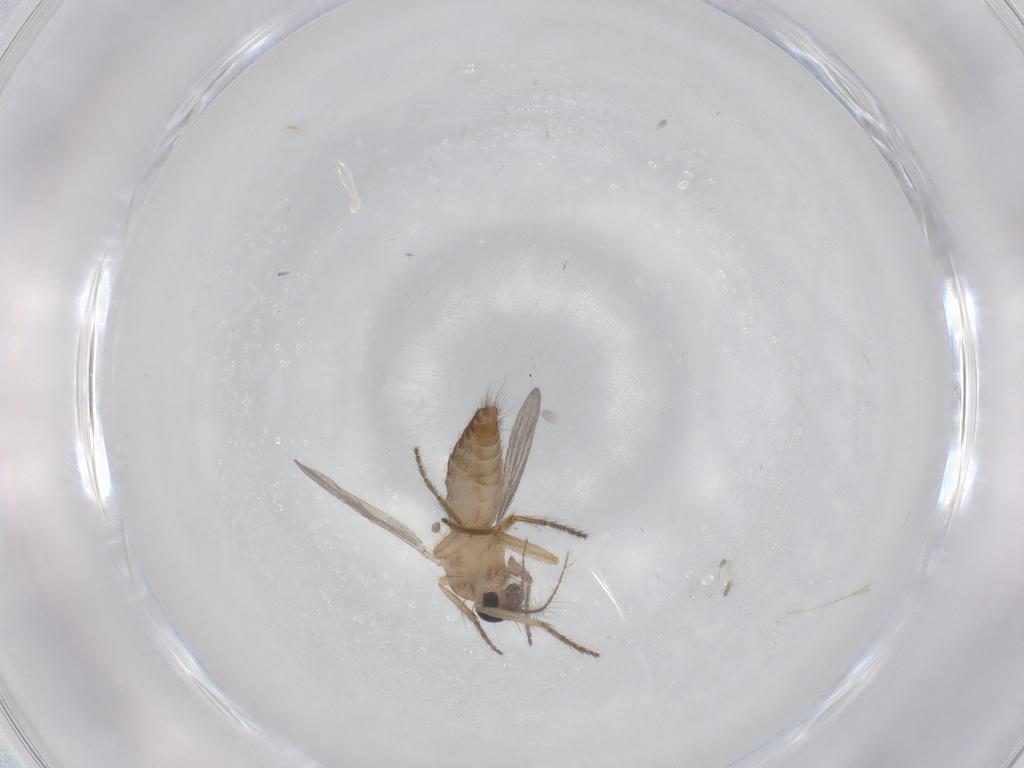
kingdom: Animalia
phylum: Arthropoda
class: Insecta
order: Diptera
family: Ceratopogonidae
